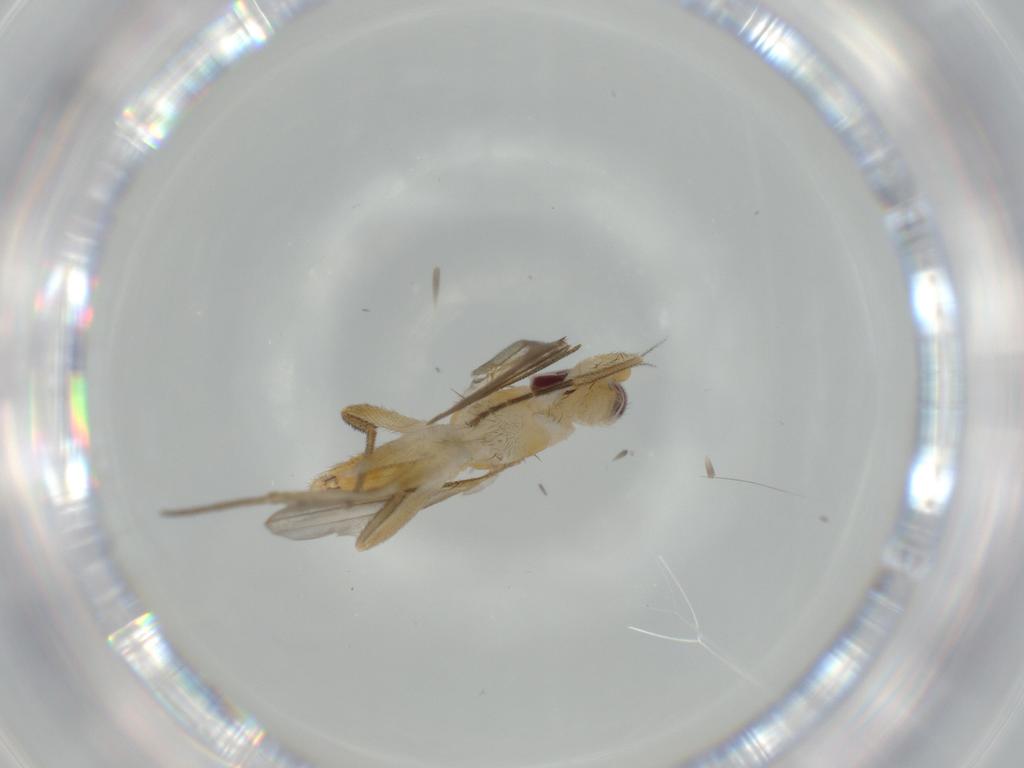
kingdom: Animalia
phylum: Arthropoda
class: Insecta
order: Diptera
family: Clusiidae
